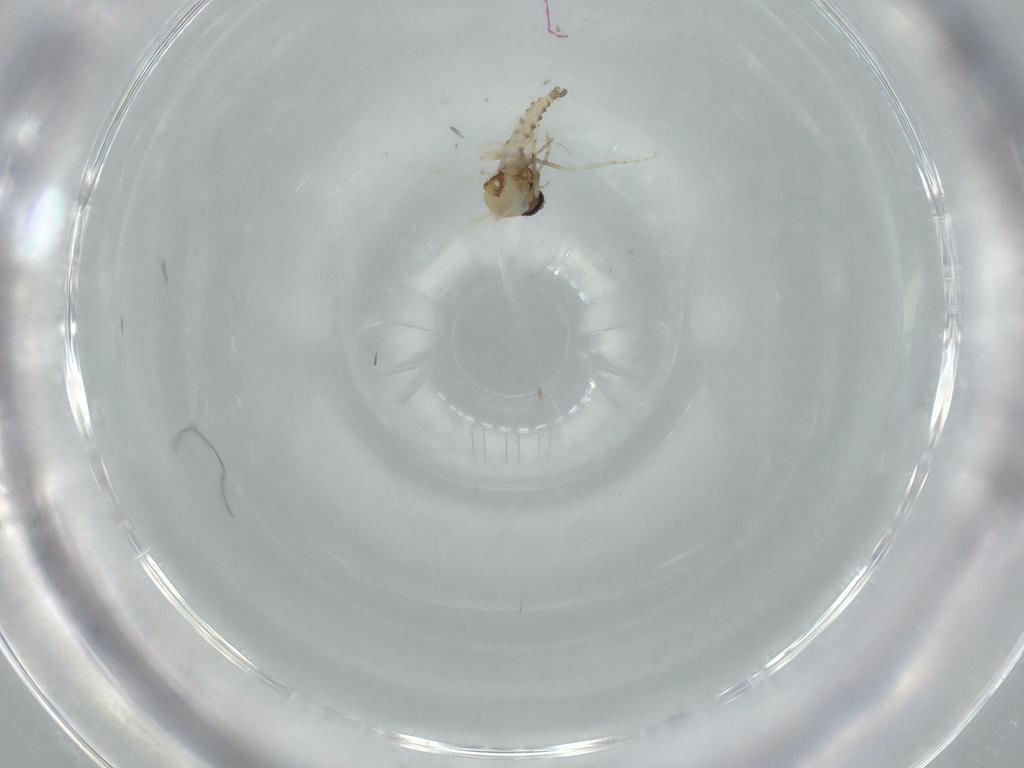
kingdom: Animalia
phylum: Arthropoda
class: Insecta
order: Diptera
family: Ceratopogonidae
